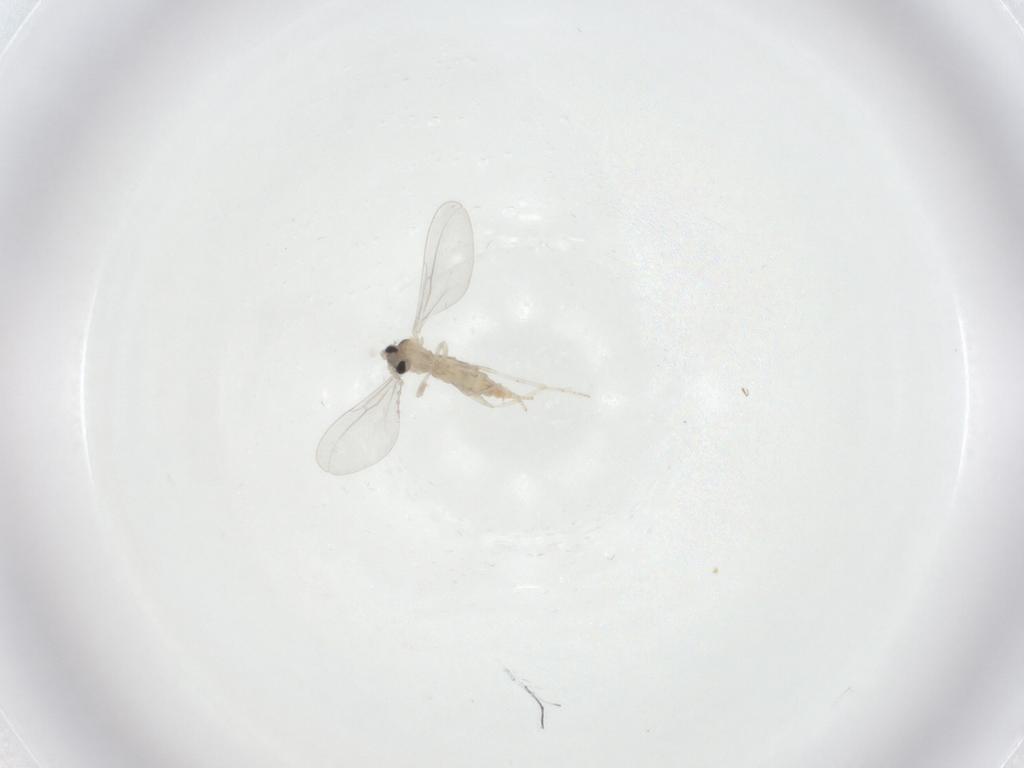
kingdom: Animalia
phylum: Arthropoda
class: Insecta
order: Diptera
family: Cecidomyiidae
